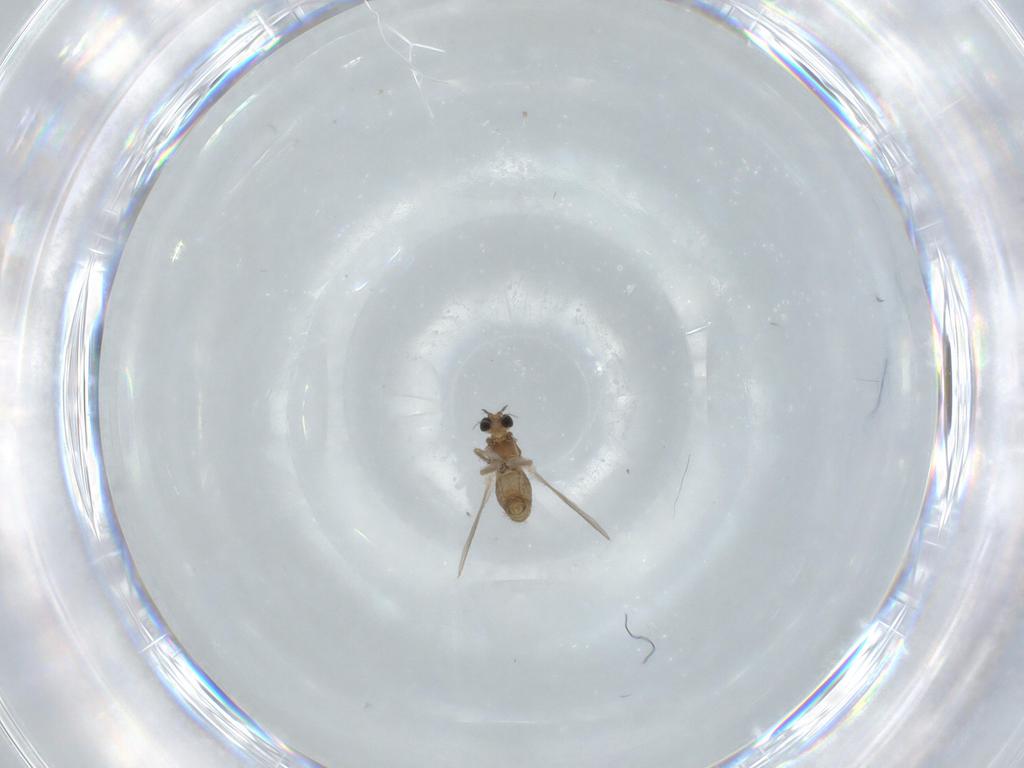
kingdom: Animalia
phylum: Arthropoda
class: Insecta
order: Diptera
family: Chironomidae
